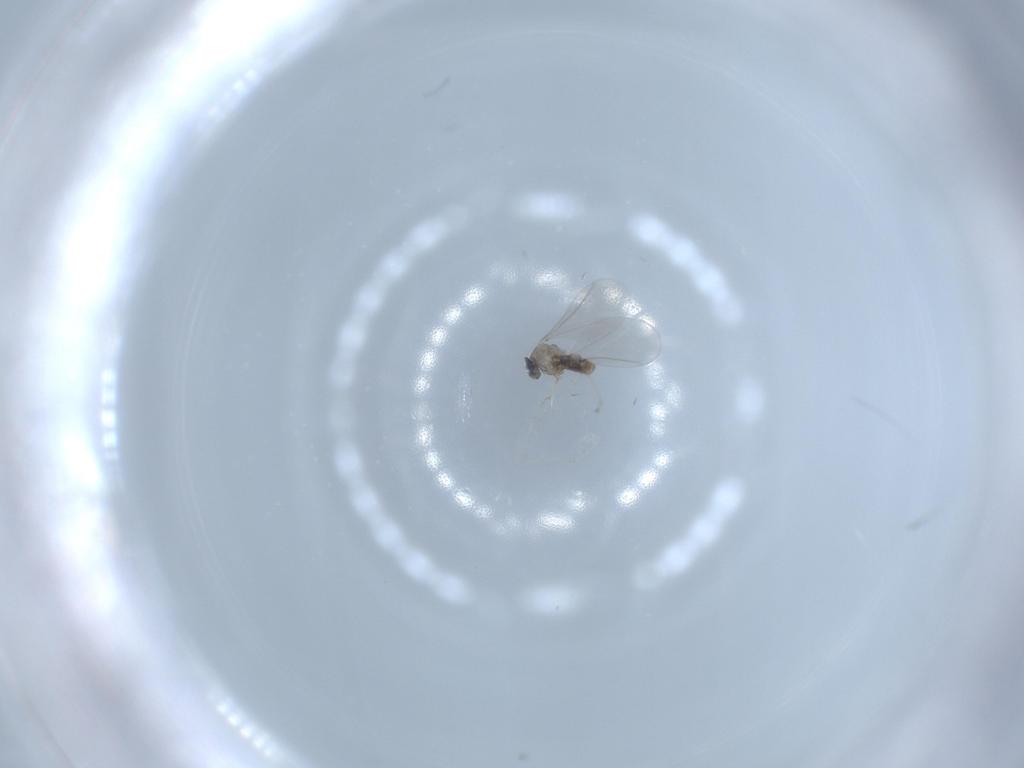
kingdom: Animalia
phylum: Arthropoda
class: Insecta
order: Diptera
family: Cecidomyiidae
